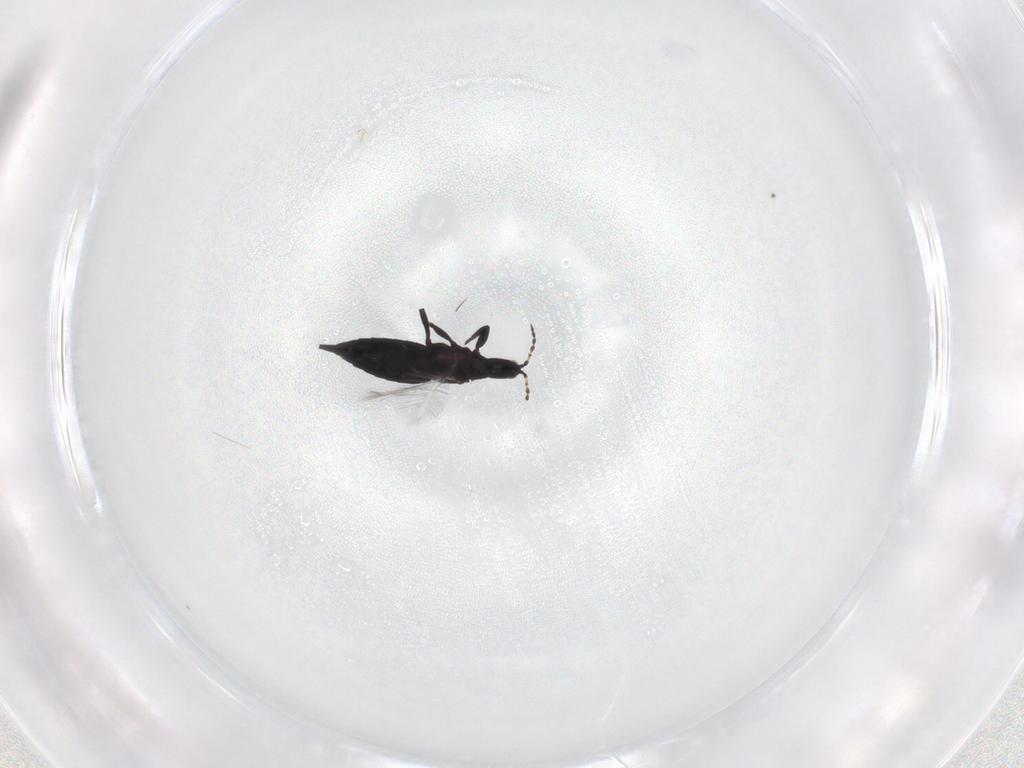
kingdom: Animalia
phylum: Arthropoda
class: Insecta
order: Thysanoptera
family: Phlaeothripidae
